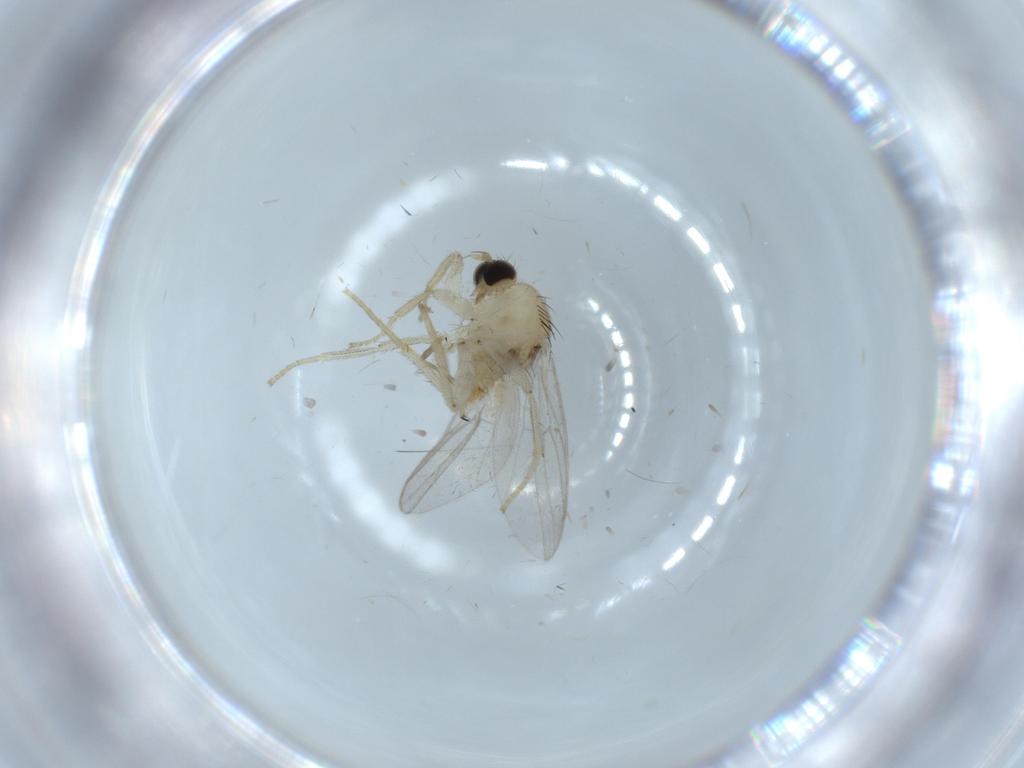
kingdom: Animalia
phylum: Arthropoda
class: Insecta
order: Diptera
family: Hybotidae
